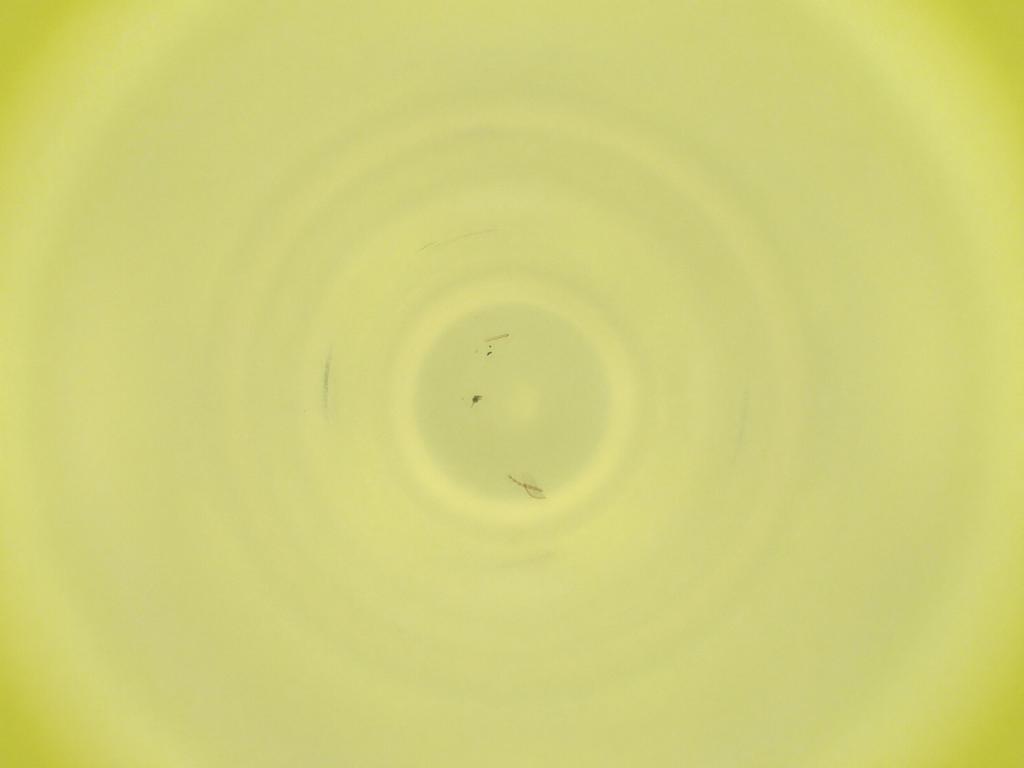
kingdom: Animalia
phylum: Arthropoda
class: Insecta
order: Diptera
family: Cecidomyiidae
